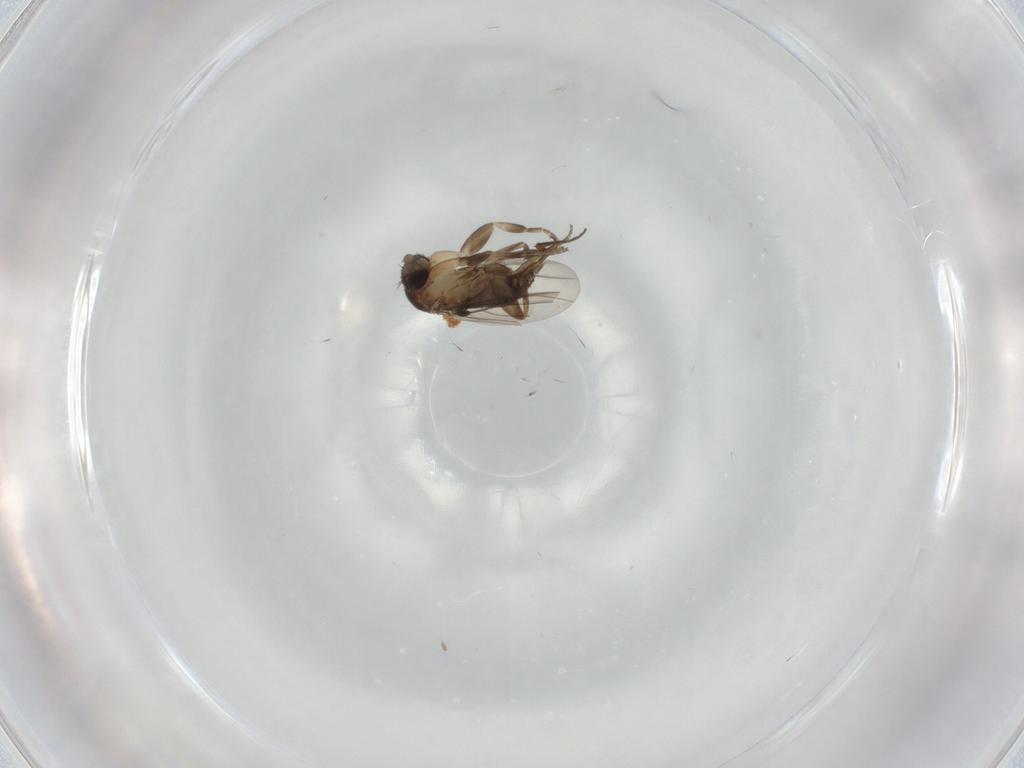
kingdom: Animalia
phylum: Arthropoda
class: Insecta
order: Diptera
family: Phoridae
